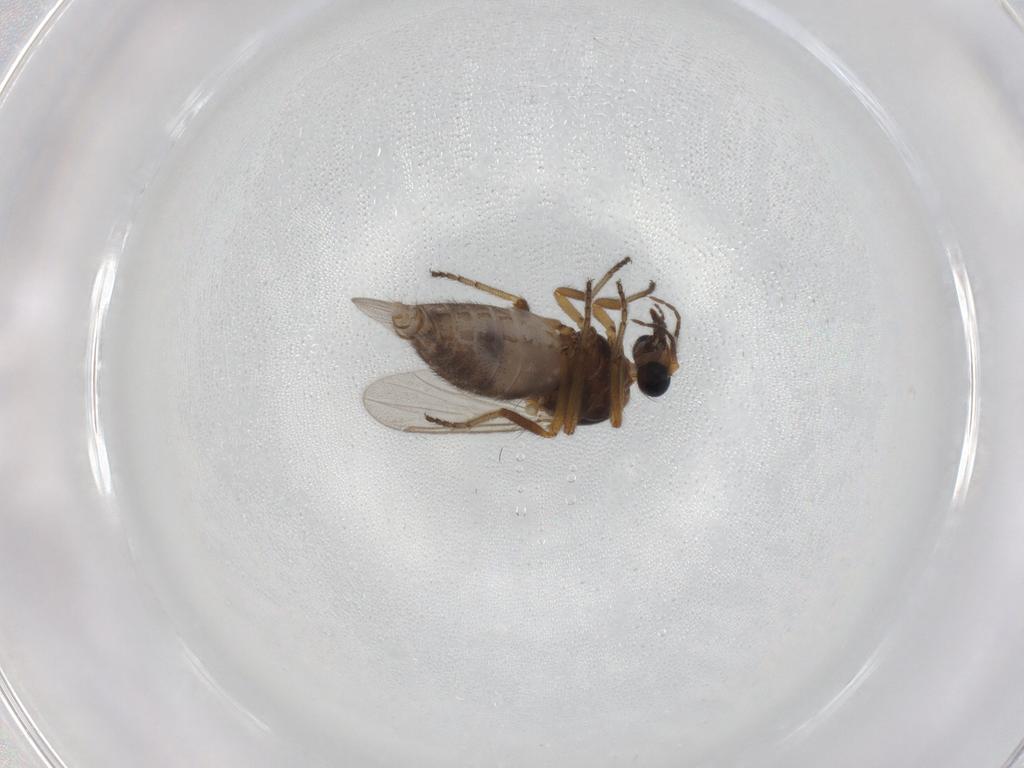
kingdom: Animalia
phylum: Arthropoda
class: Insecta
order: Diptera
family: Ceratopogonidae
